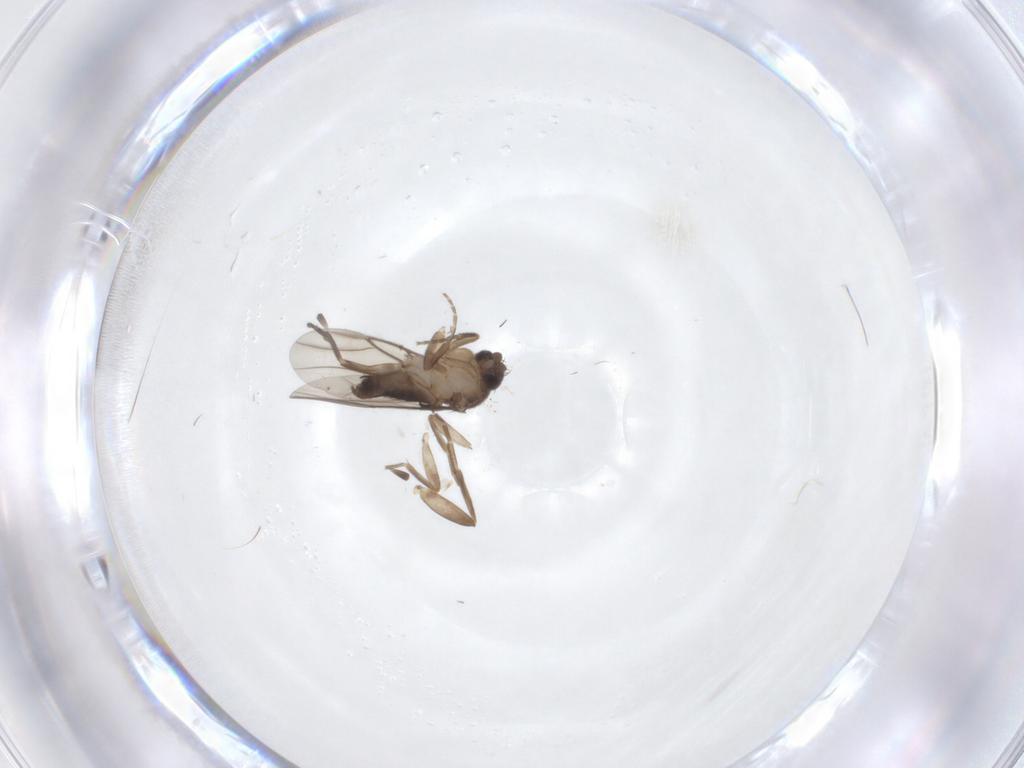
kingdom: Animalia
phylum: Arthropoda
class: Insecta
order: Diptera
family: Phoridae
